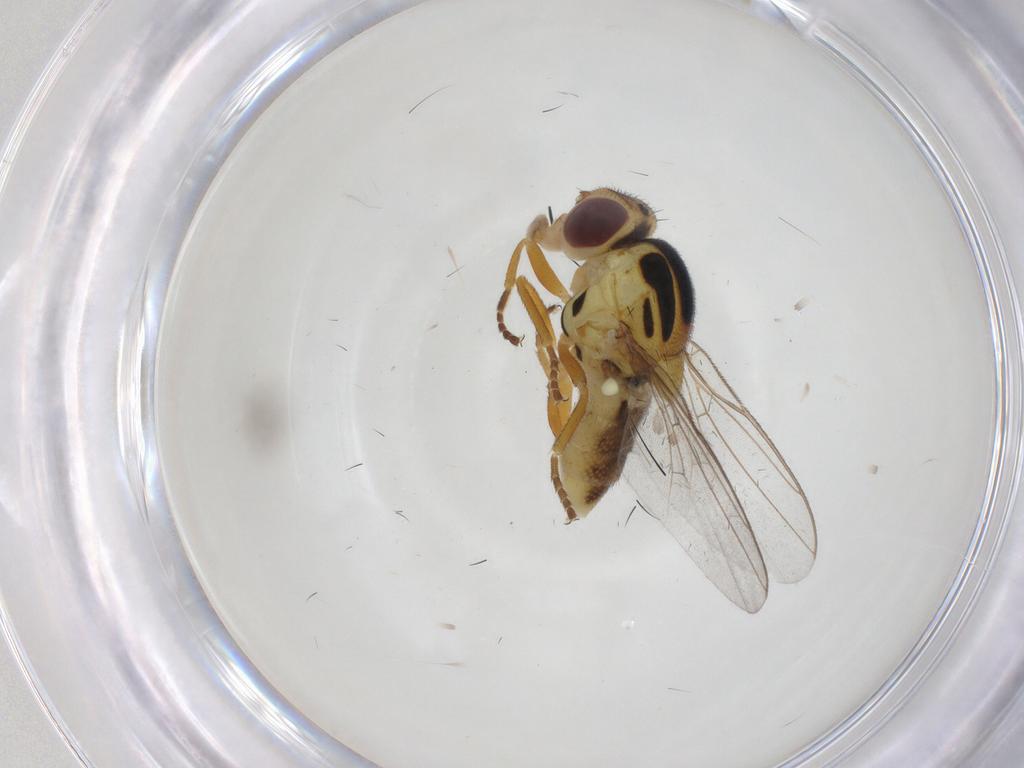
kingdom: Animalia
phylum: Arthropoda
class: Insecta
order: Diptera
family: Chloropidae
